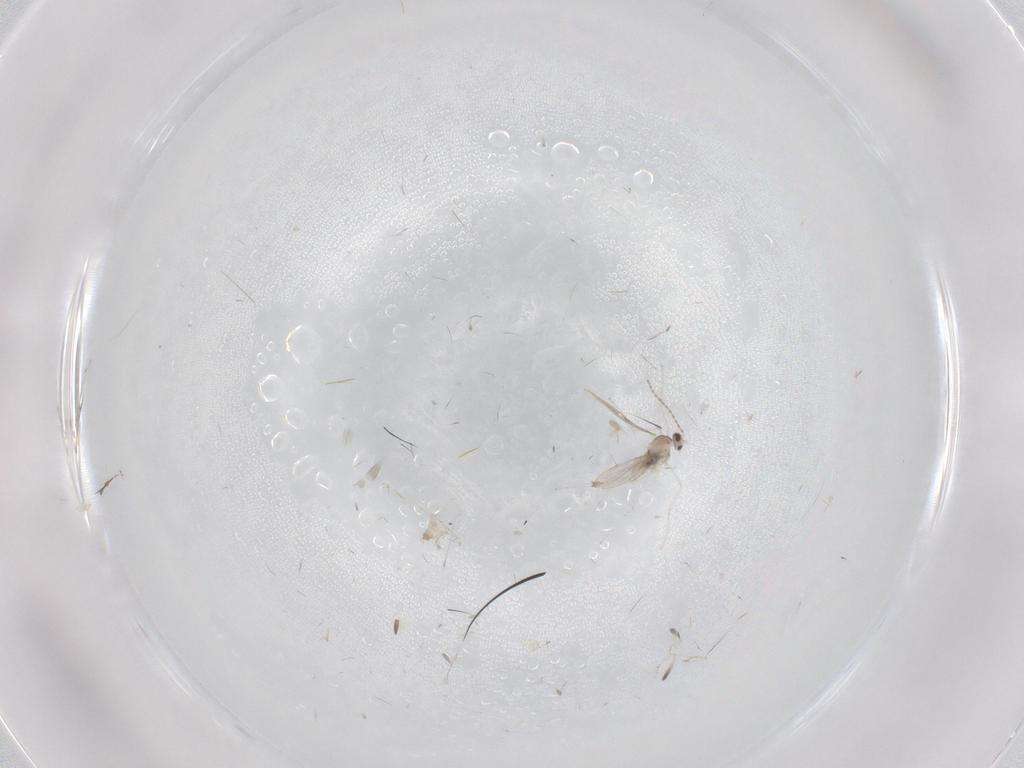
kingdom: Animalia
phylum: Arthropoda
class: Insecta
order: Diptera
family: Cecidomyiidae
